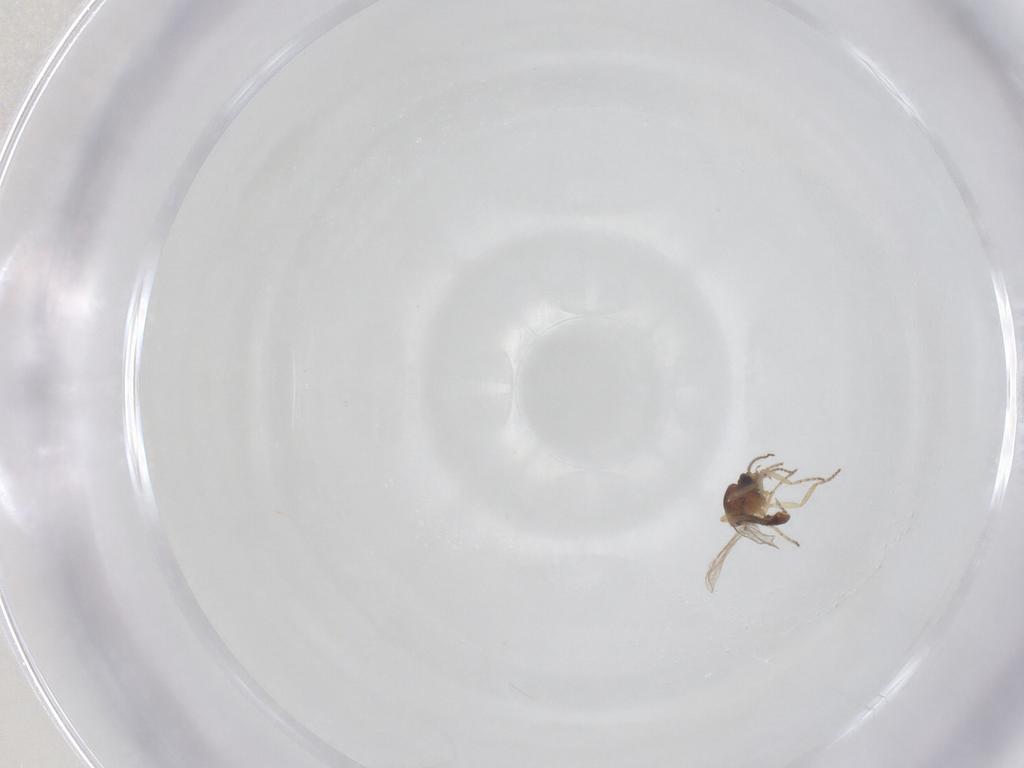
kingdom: Animalia
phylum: Arthropoda
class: Insecta
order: Diptera
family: Ceratopogonidae
